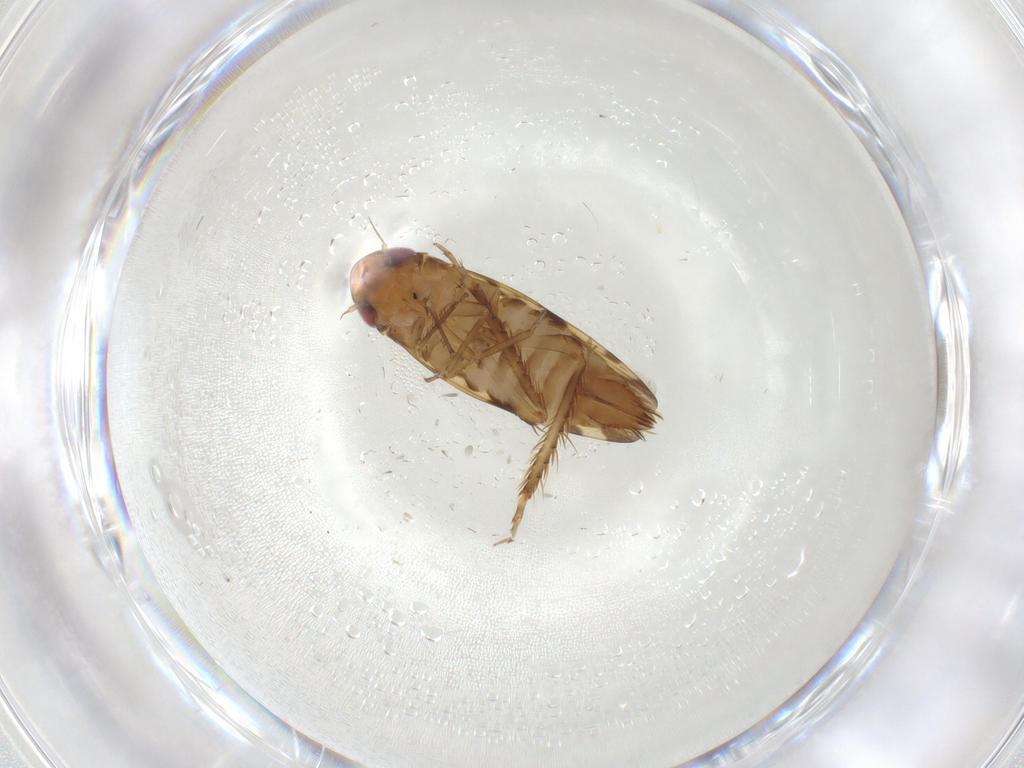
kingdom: Animalia
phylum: Arthropoda
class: Insecta
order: Hemiptera
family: Cicadellidae
